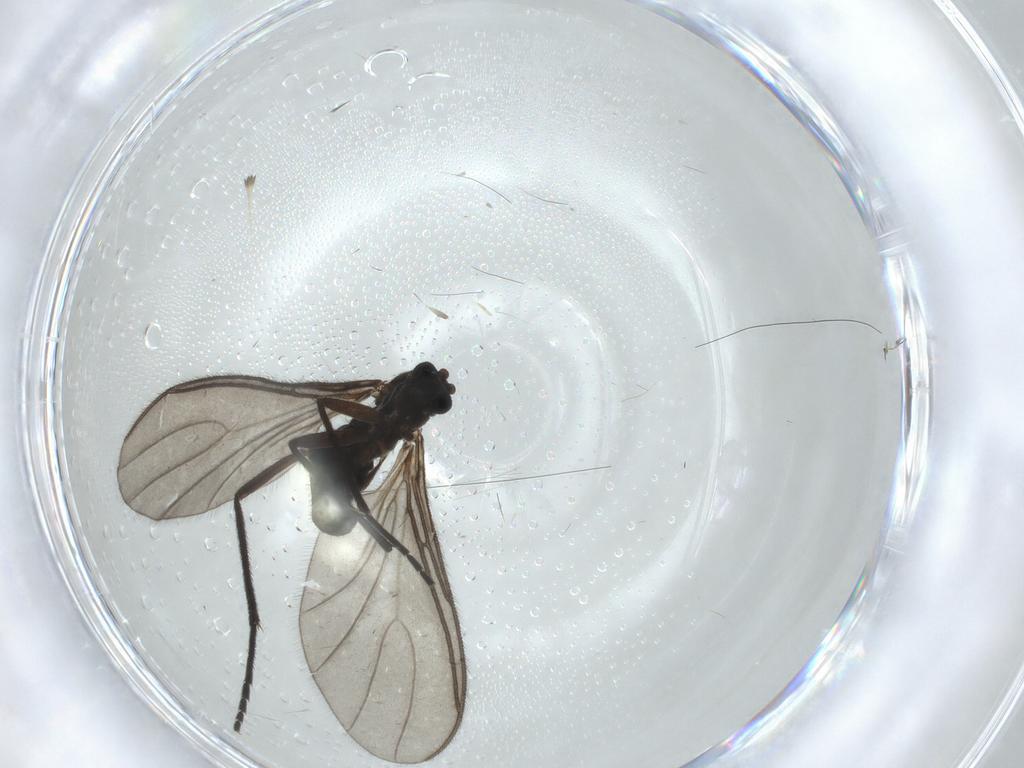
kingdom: Animalia
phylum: Arthropoda
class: Insecta
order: Diptera
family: Sciaridae
